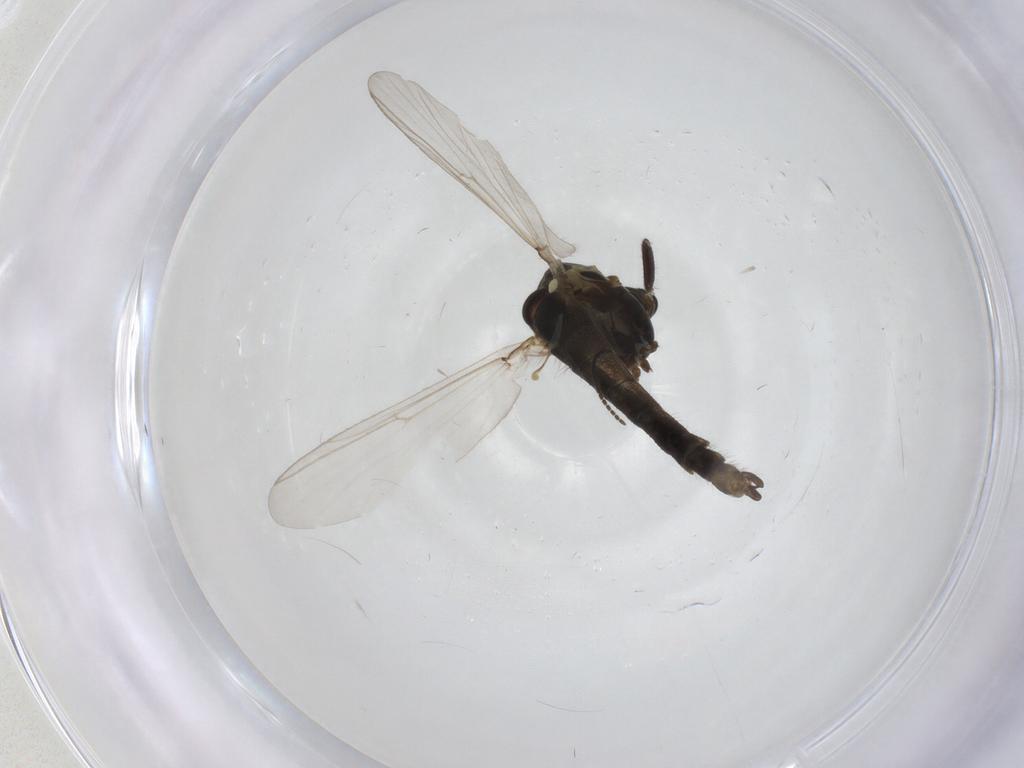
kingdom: Animalia
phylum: Arthropoda
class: Insecta
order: Diptera
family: Chironomidae
